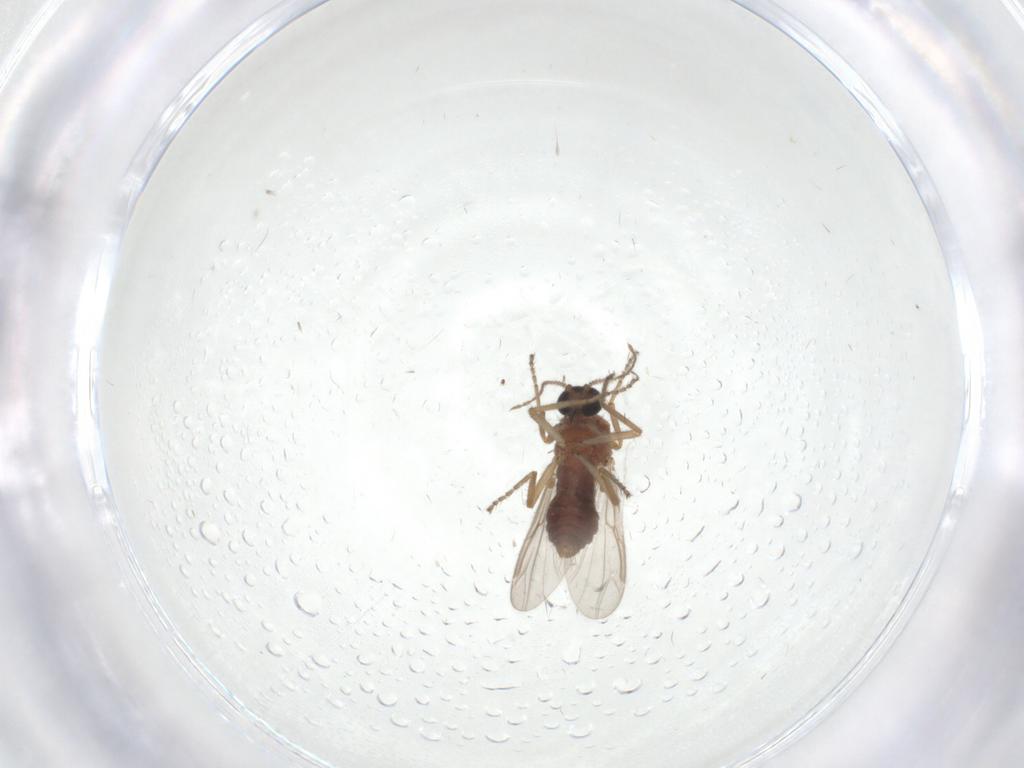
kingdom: Animalia
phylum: Arthropoda
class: Insecta
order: Diptera
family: Ceratopogonidae
